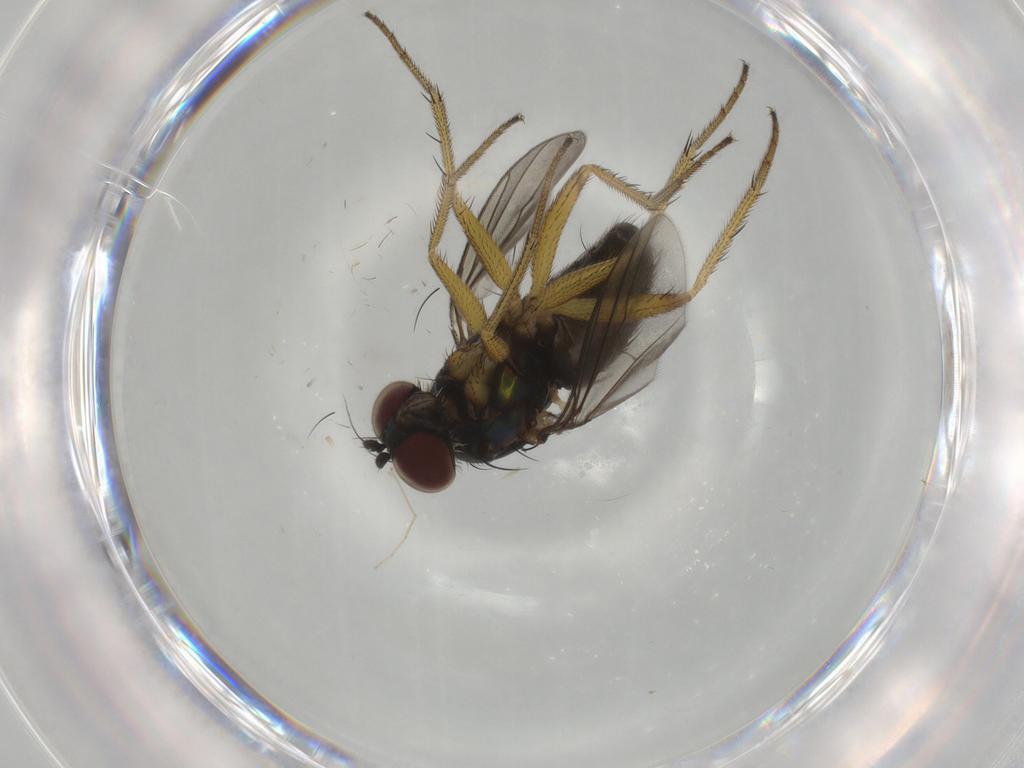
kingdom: Animalia
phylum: Arthropoda
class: Insecta
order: Diptera
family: Dolichopodidae
